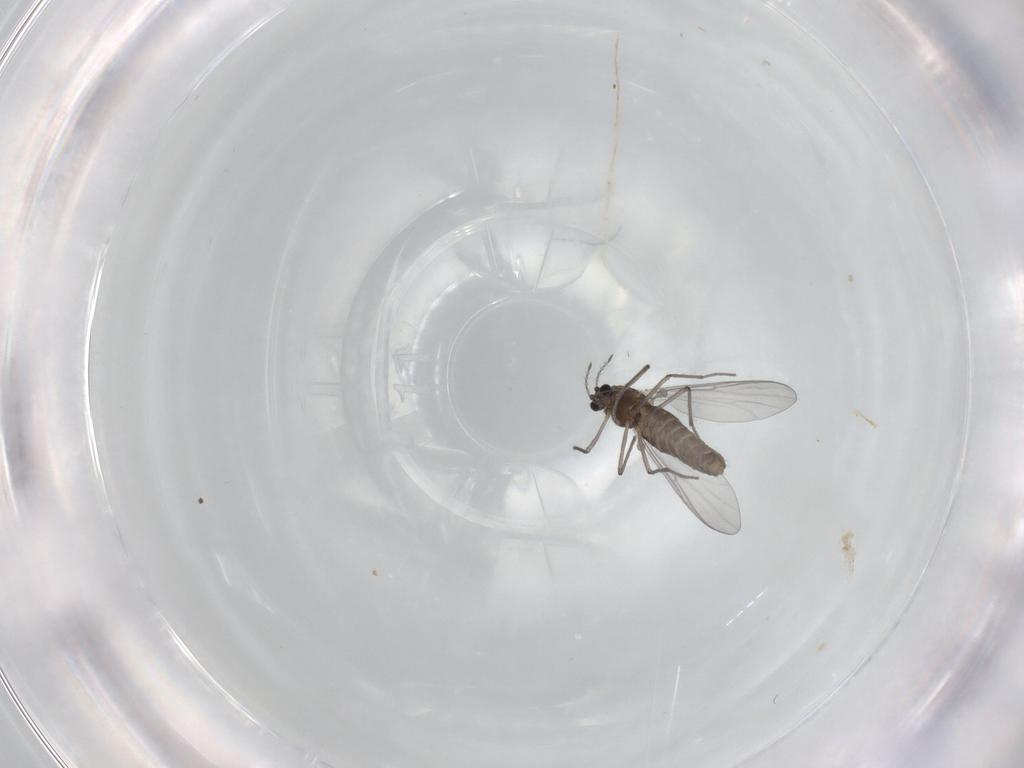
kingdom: Animalia
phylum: Arthropoda
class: Insecta
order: Diptera
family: Chironomidae
